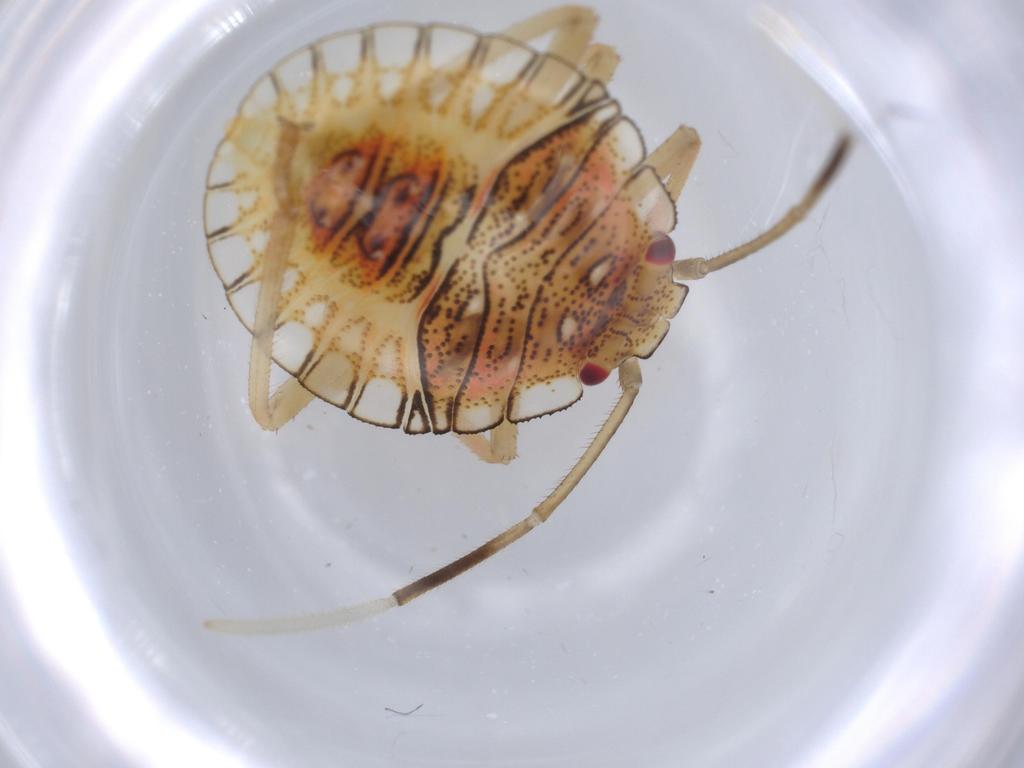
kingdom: Animalia
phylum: Arthropoda
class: Insecta
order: Hemiptera
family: Pentatomidae
